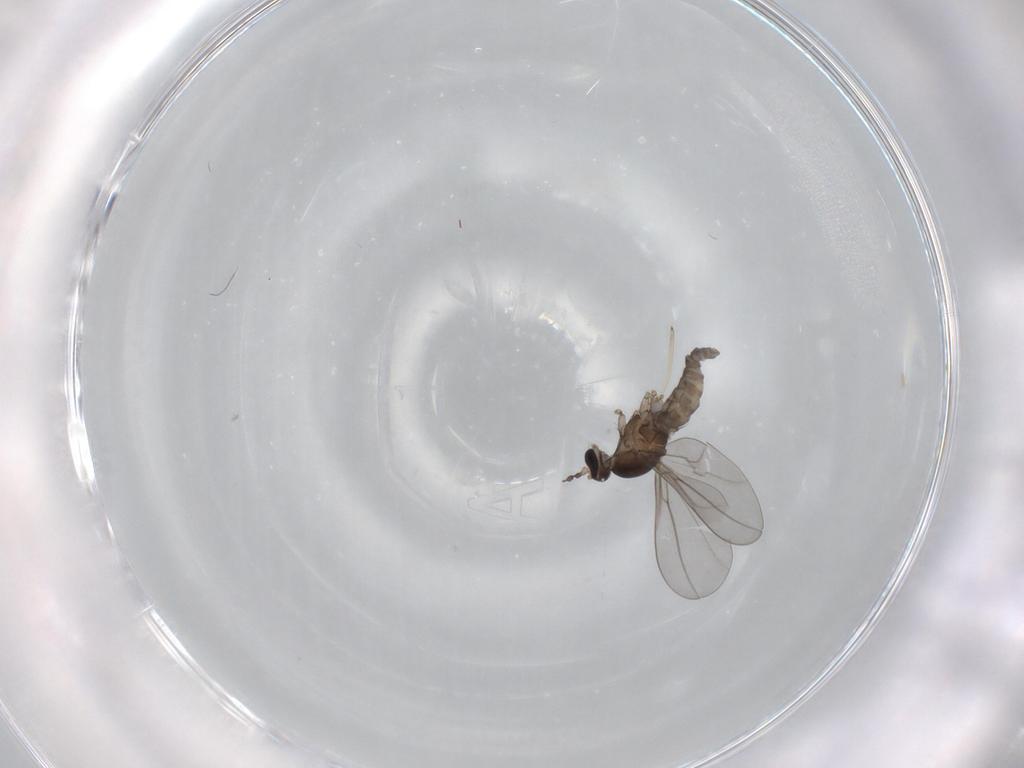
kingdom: Animalia
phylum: Arthropoda
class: Insecta
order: Diptera
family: Cecidomyiidae
